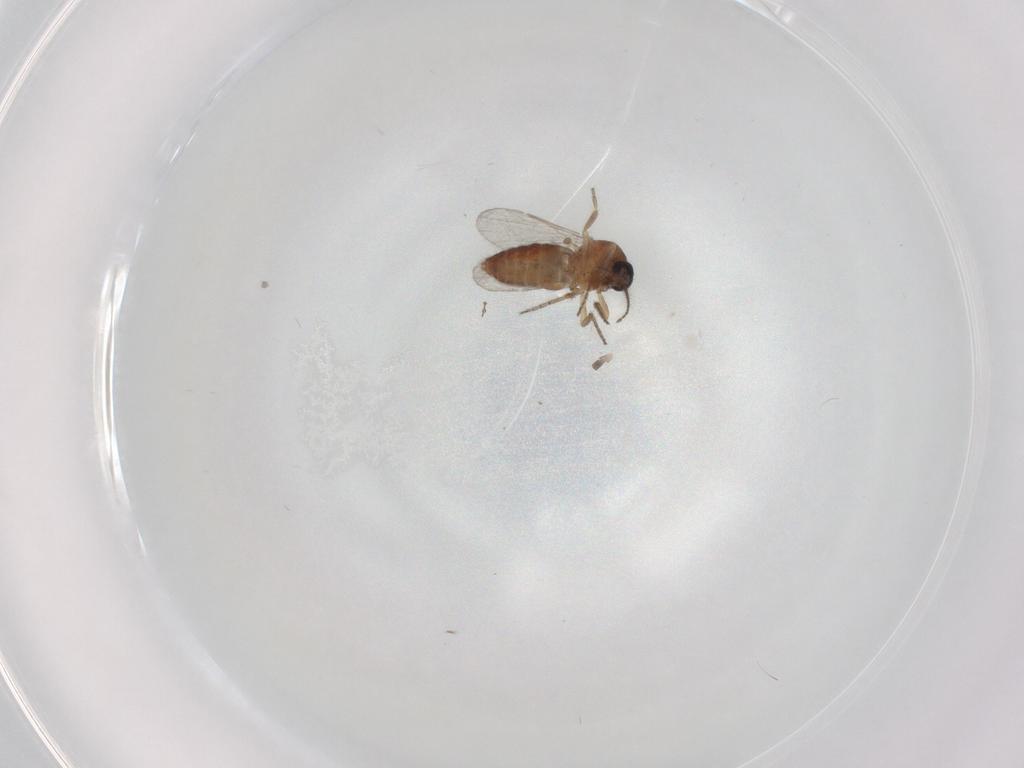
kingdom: Animalia
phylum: Arthropoda
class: Insecta
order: Diptera
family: Ceratopogonidae
